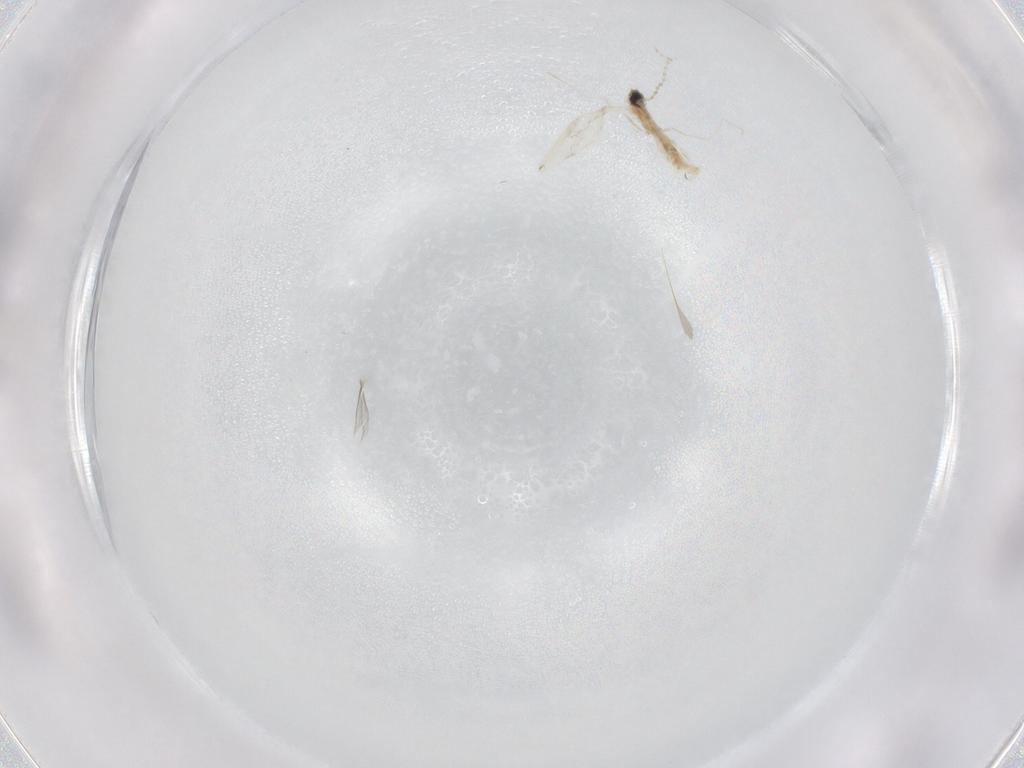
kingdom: Animalia
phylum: Arthropoda
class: Insecta
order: Diptera
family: Cecidomyiidae
